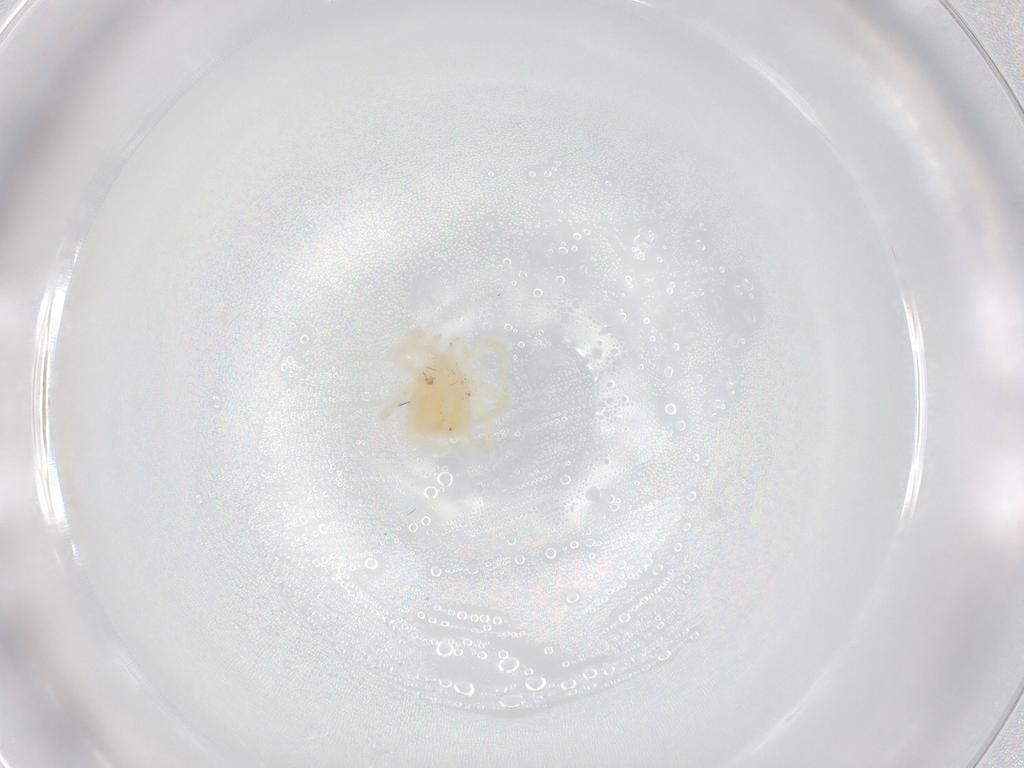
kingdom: Animalia
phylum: Arthropoda
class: Arachnida
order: Trombidiformes
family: Eupodidae
